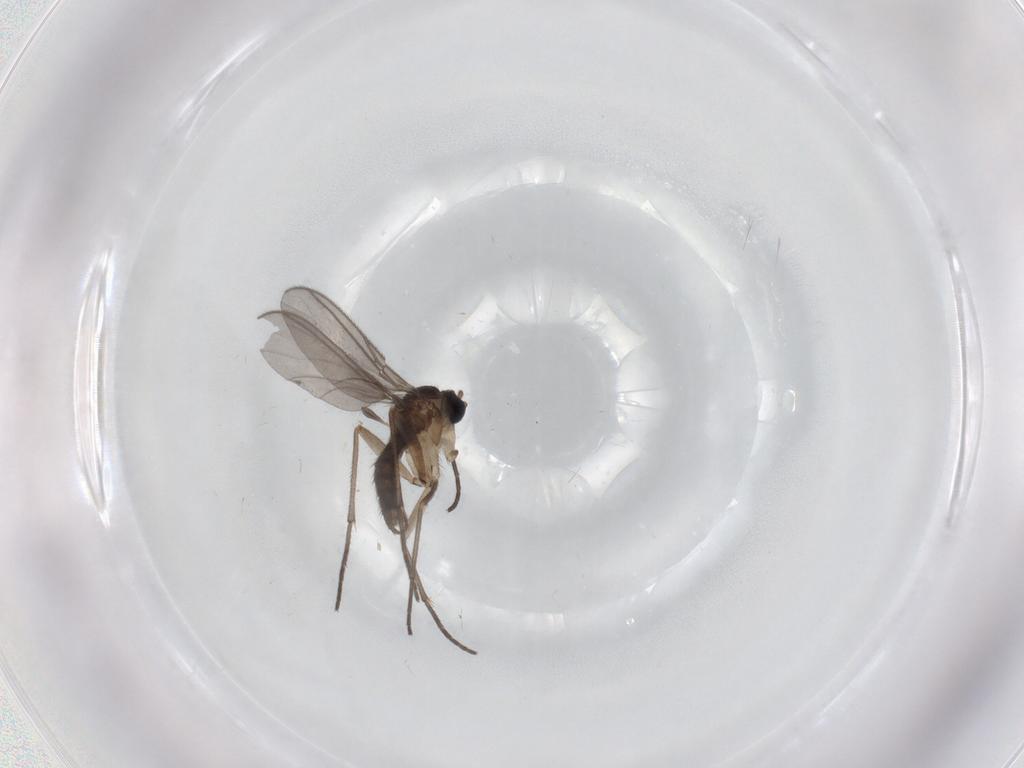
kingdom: Animalia
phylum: Arthropoda
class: Insecta
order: Diptera
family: Sciaridae
